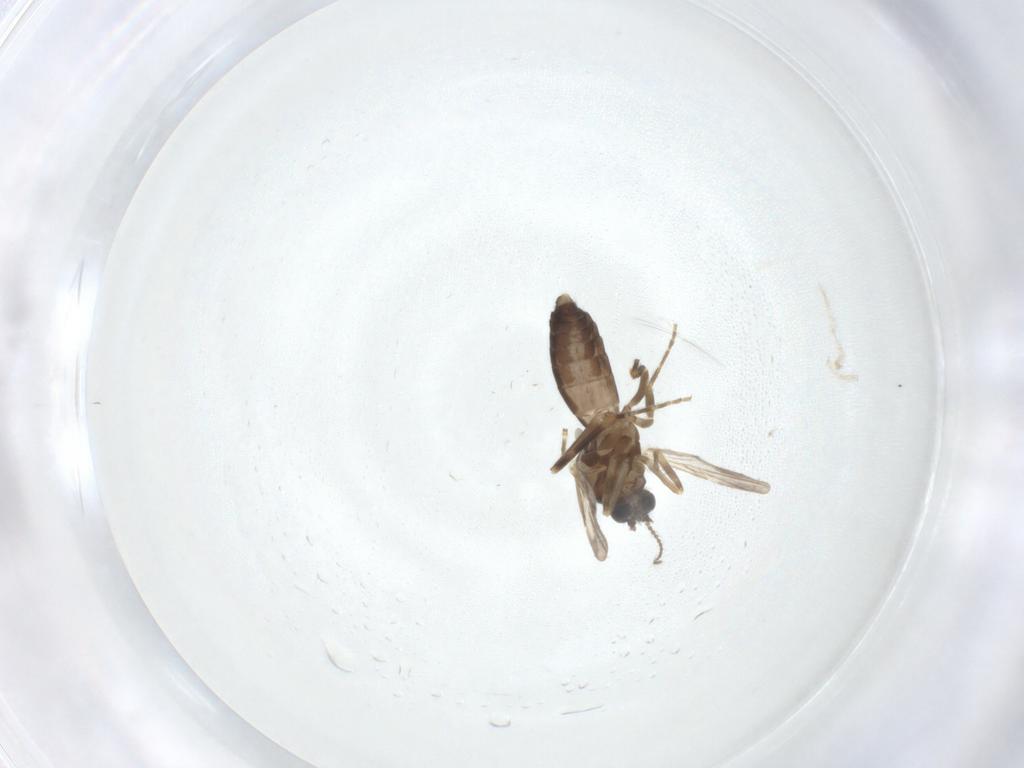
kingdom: Animalia
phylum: Arthropoda
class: Insecta
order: Diptera
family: Ceratopogonidae
